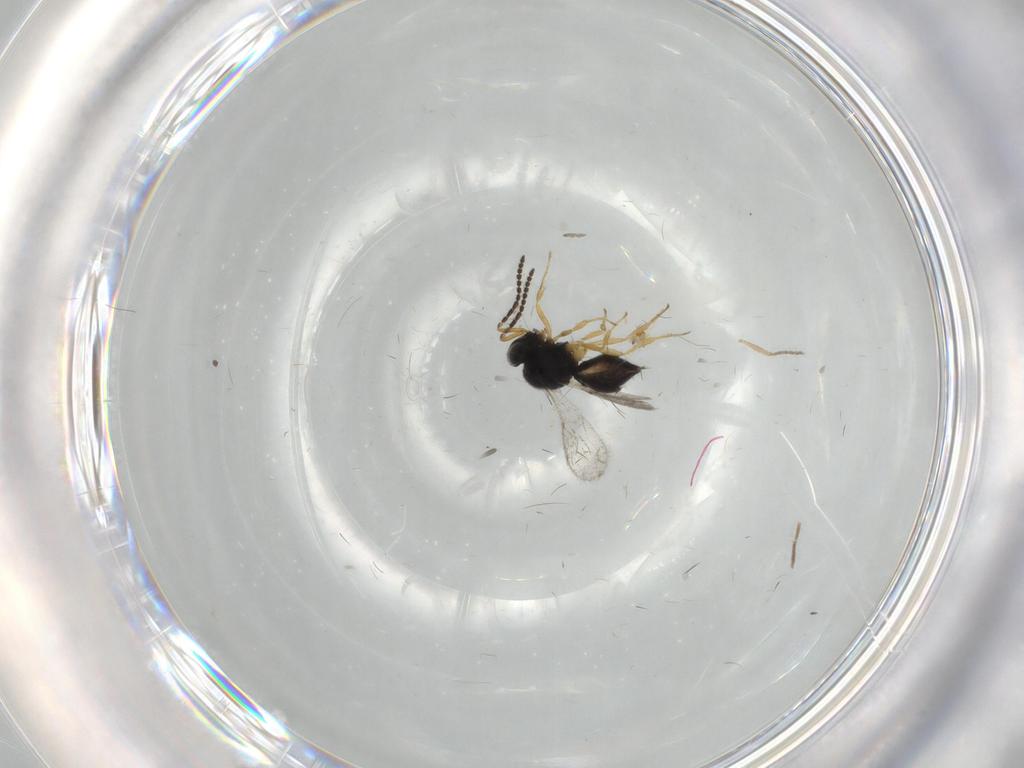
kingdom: Animalia
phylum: Arthropoda
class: Insecta
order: Hymenoptera
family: Scelionidae
